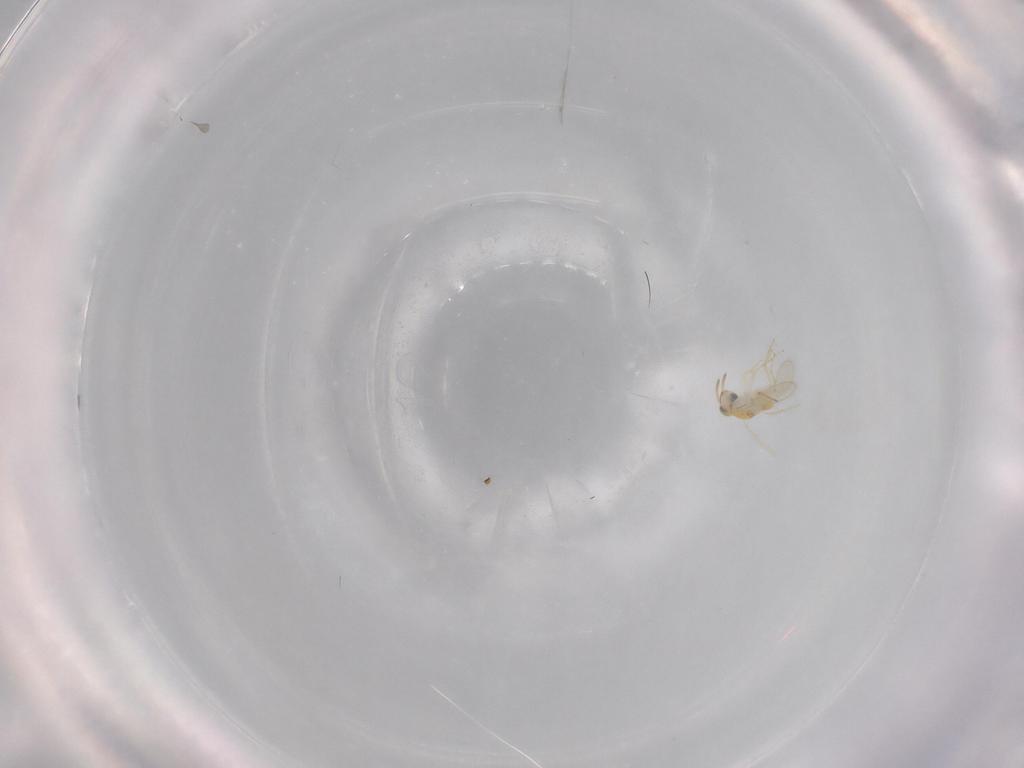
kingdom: Animalia
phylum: Arthropoda
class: Insecta
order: Hymenoptera
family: Aphelinidae
